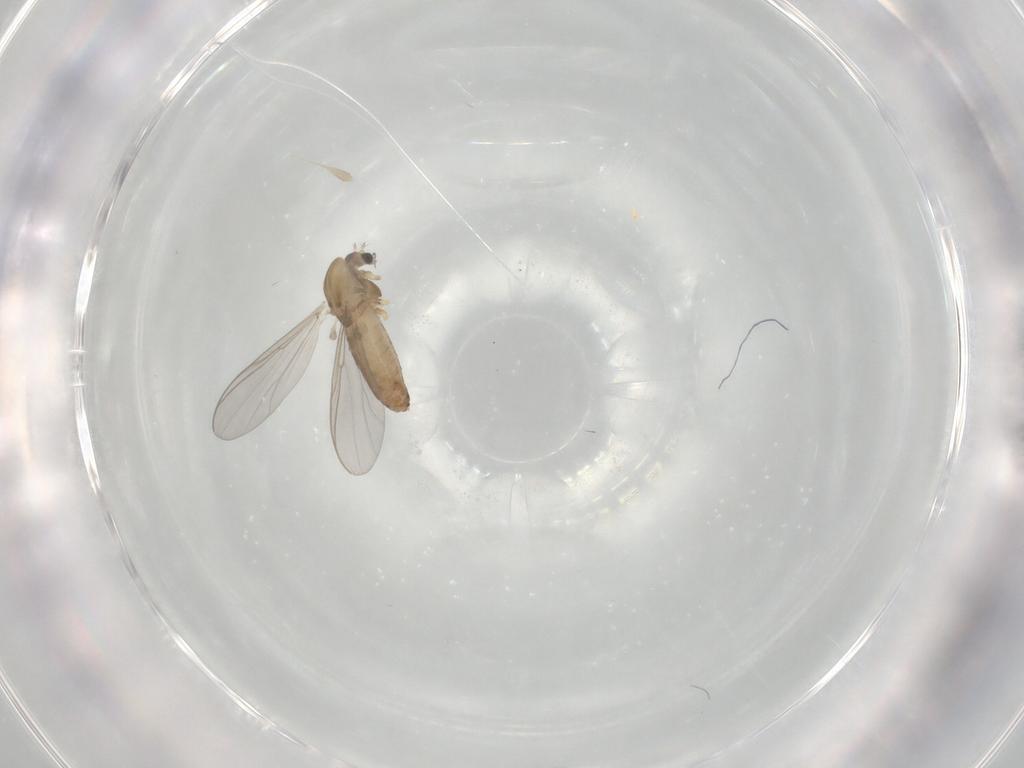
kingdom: Animalia
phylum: Arthropoda
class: Insecta
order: Diptera
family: Chironomidae
